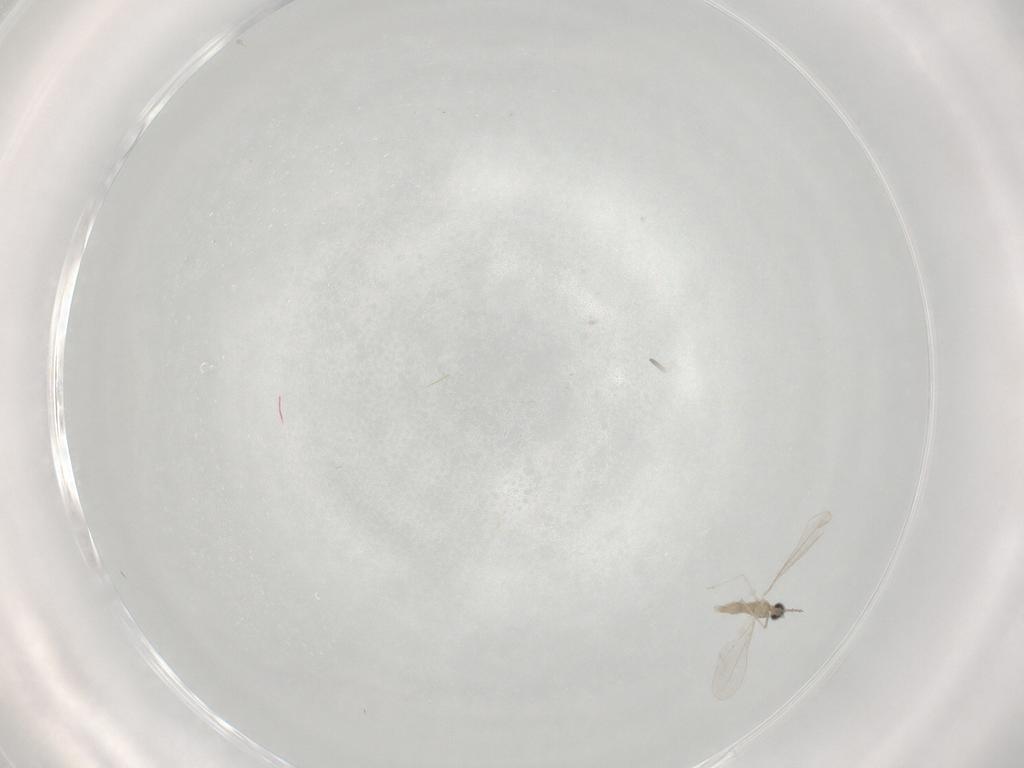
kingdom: Animalia
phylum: Arthropoda
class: Insecta
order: Diptera
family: Cecidomyiidae
